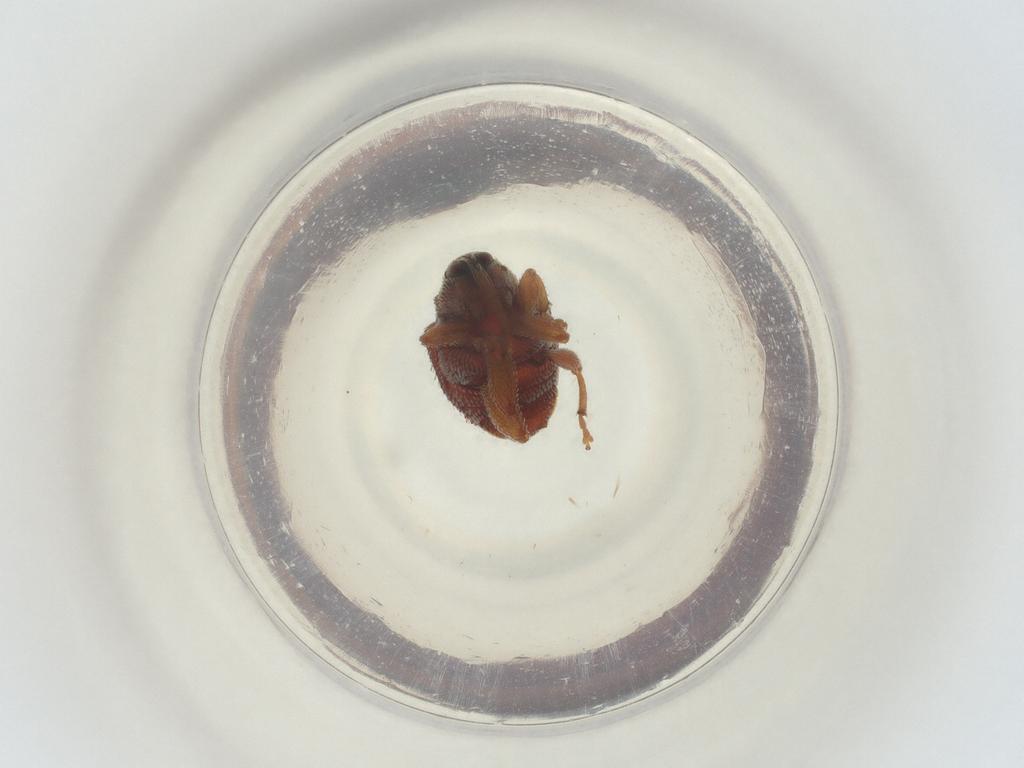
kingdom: Animalia
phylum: Arthropoda
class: Insecta
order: Coleoptera
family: Curculionidae
